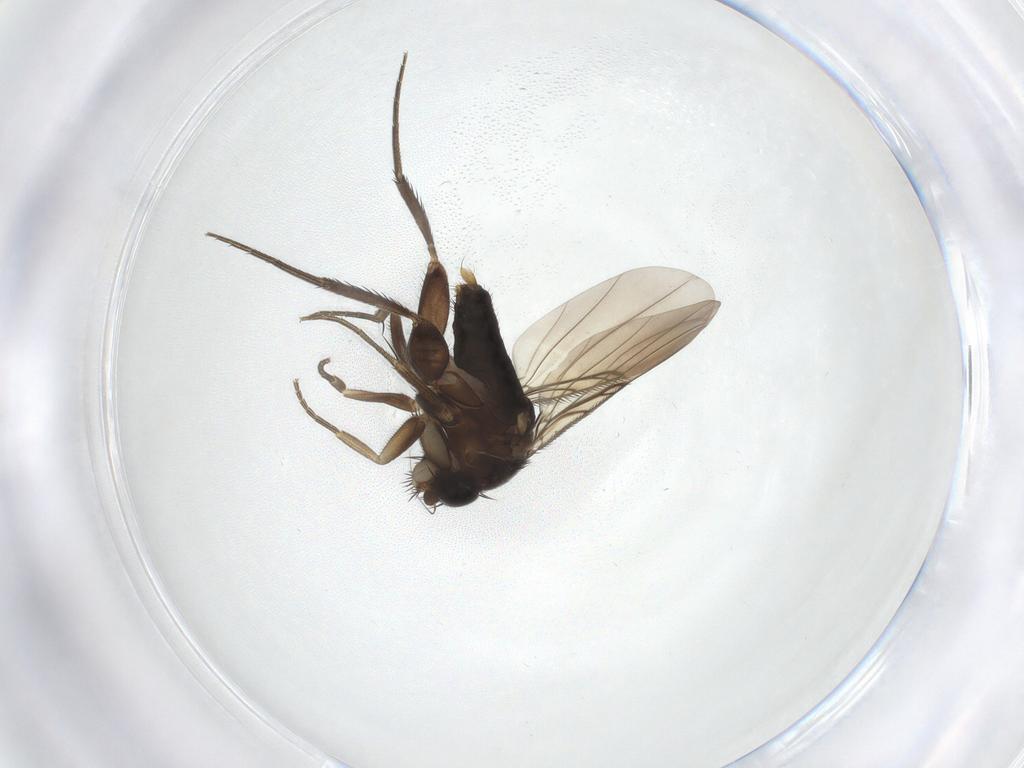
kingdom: Animalia
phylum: Arthropoda
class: Insecta
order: Diptera
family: Phoridae
